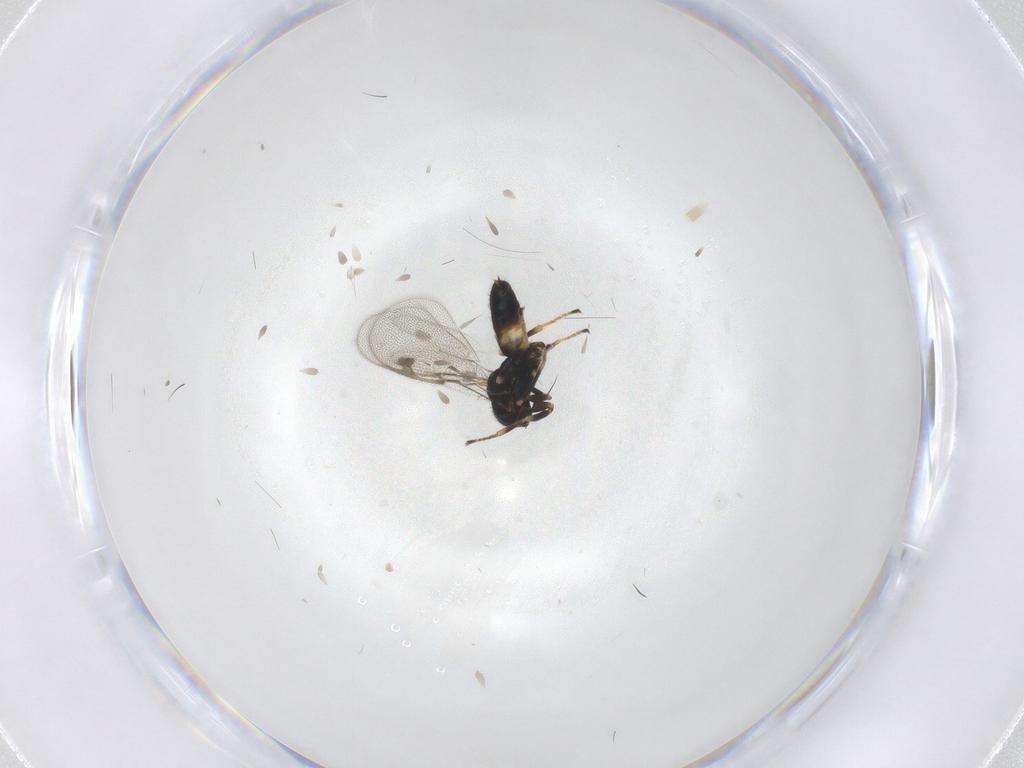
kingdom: Animalia
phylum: Arthropoda
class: Insecta
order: Hymenoptera
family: Pirenidae
